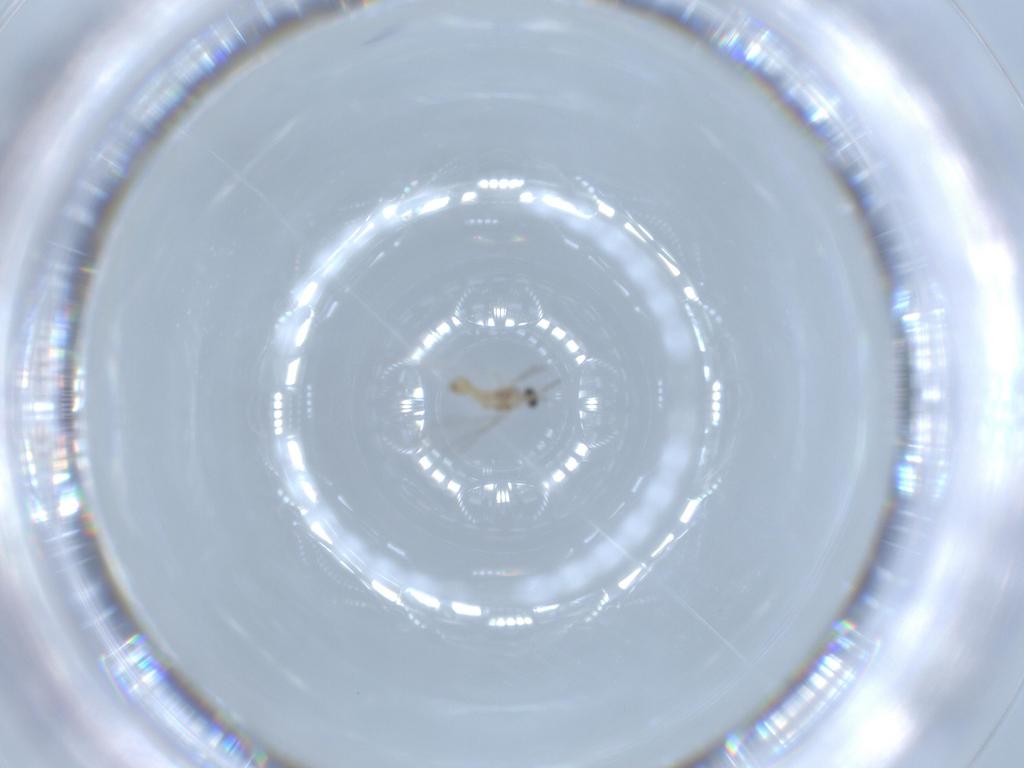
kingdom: Animalia
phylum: Arthropoda
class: Insecta
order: Diptera
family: Cecidomyiidae
